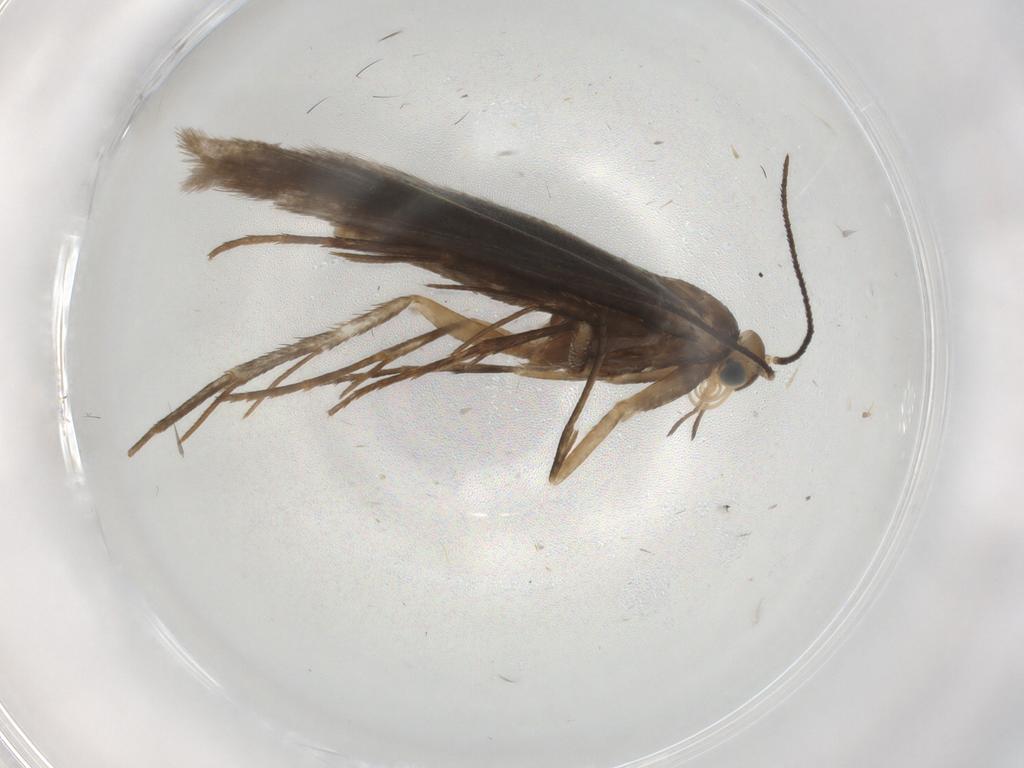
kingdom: Animalia
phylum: Arthropoda
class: Insecta
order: Lepidoptera
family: Schreckensteiniidae
